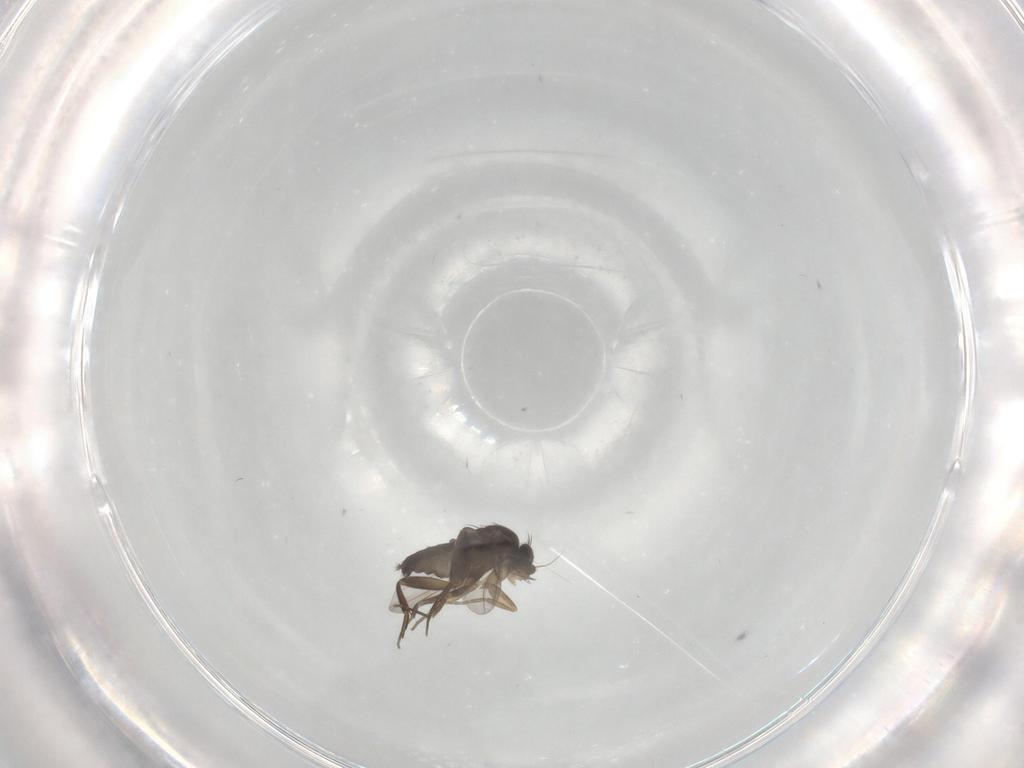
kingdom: Animalia
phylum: Arthropoda
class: Insecta
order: Diptera
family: Phoridae
